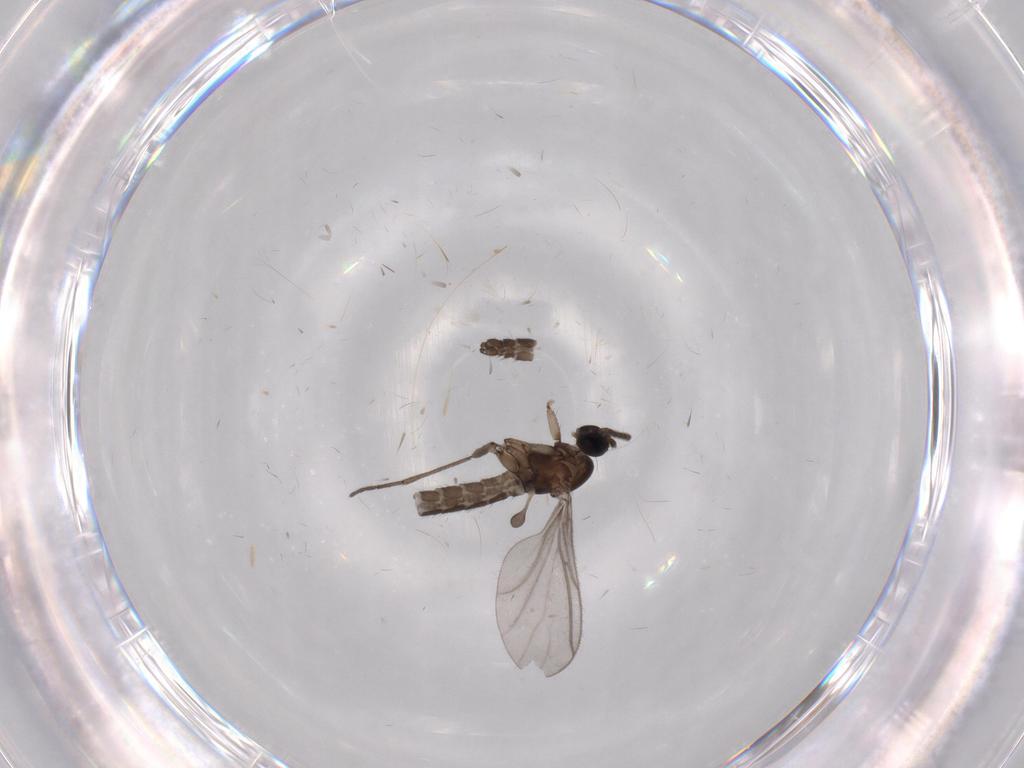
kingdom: Animalia
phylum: Arthropoda
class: Insecta
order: Diptera
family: Sciaridae
